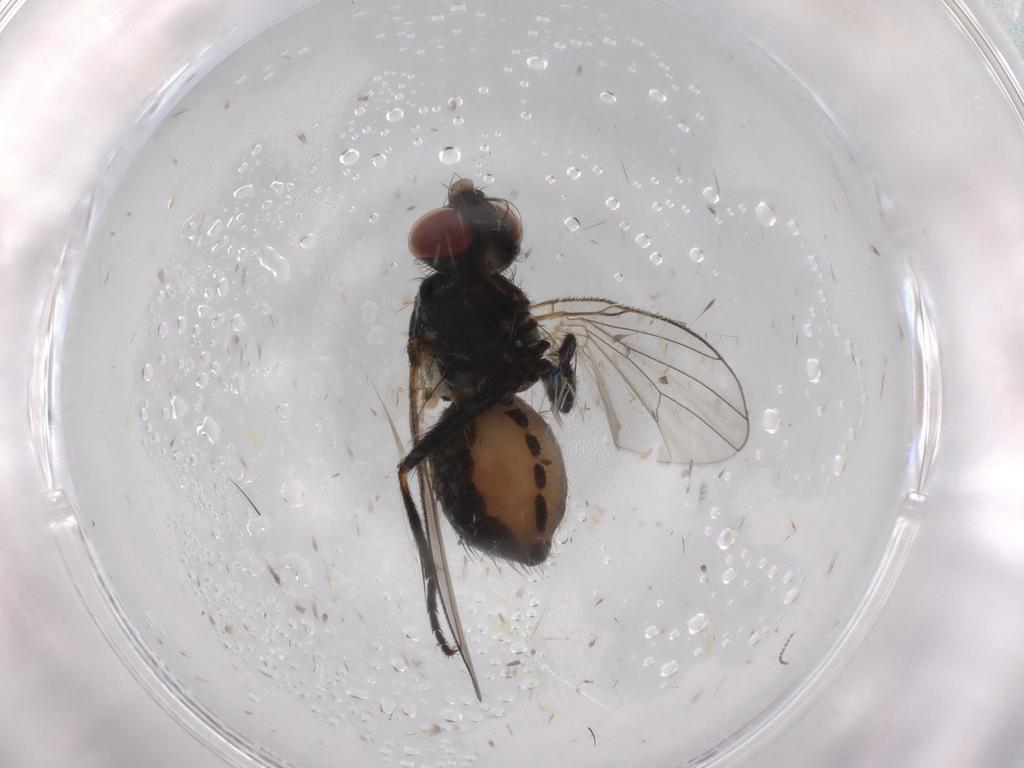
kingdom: Animalia
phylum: Arthropoda
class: Insecta
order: Diptera
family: Muscidae
